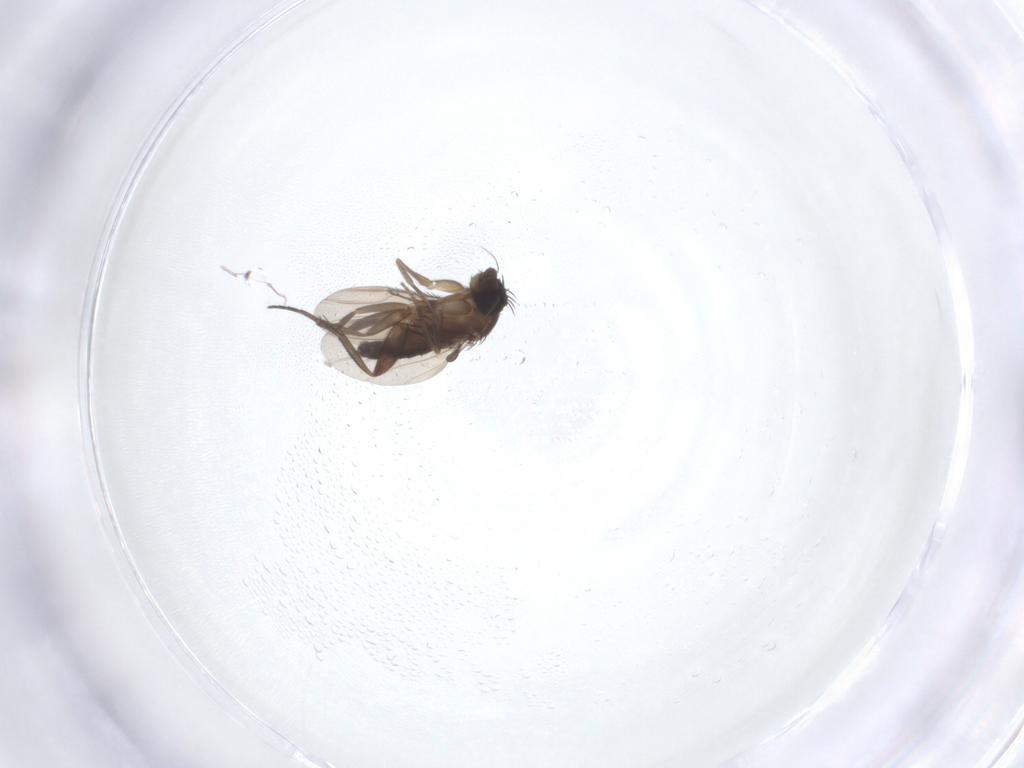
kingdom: Animalia
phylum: Arthropoda
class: Insecta
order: Diptera
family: Phoridae
